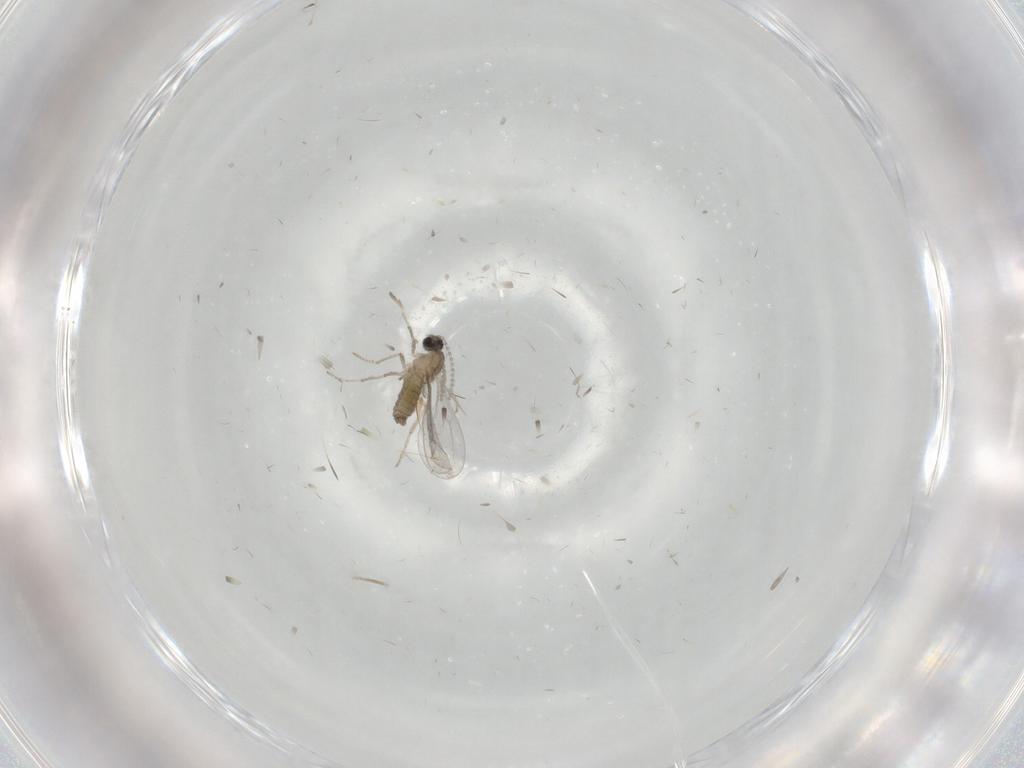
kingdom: Animalia
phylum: Arthropoda
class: Insecta
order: Diptera
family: Cecidomyiidae
